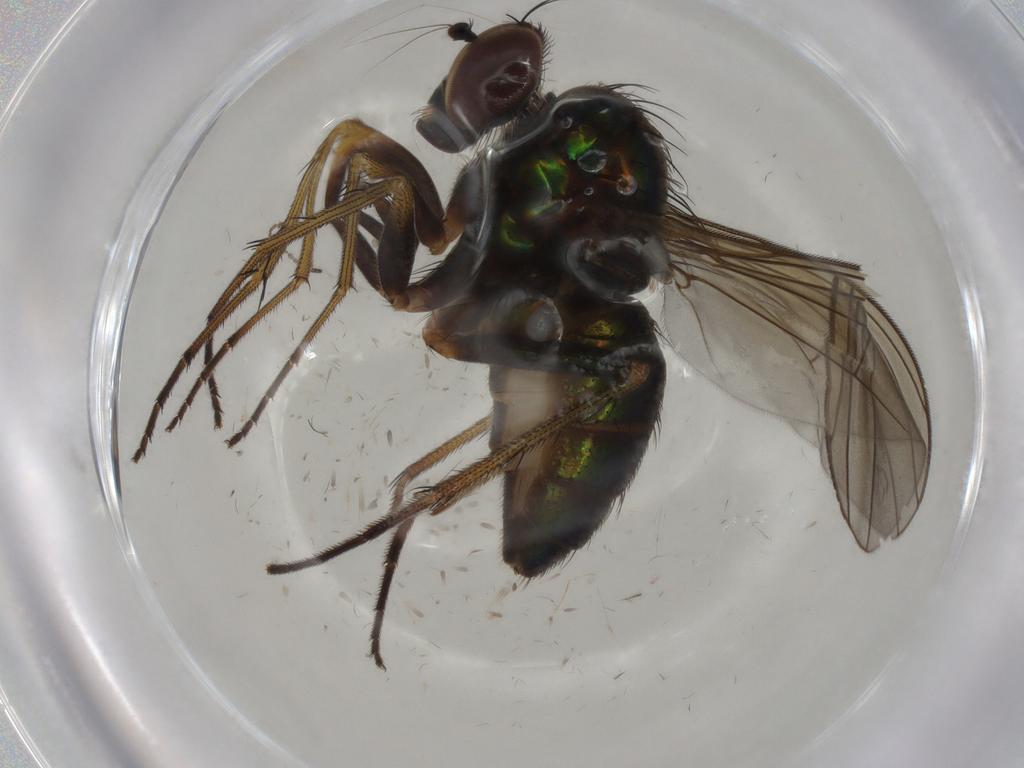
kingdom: Animalia
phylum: Arthropoda
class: Insecta
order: Diptera
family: Dolichopodidae
